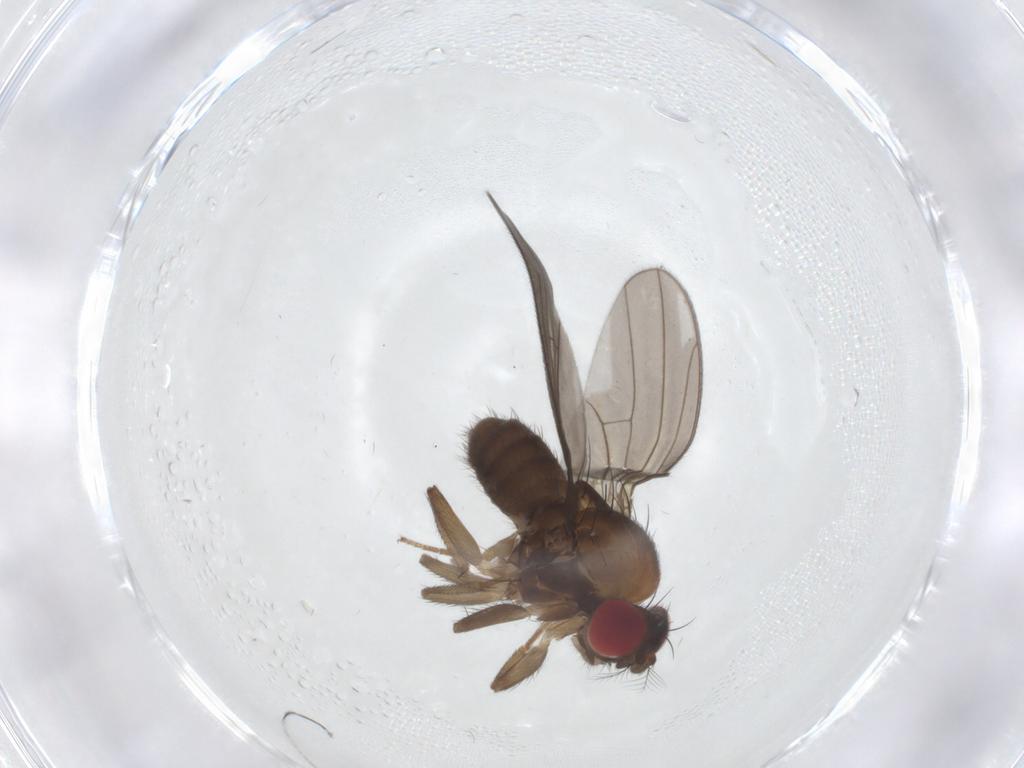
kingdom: Animalia
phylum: Arthropoda
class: Insecta
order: Diptera
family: Drosophilidae
